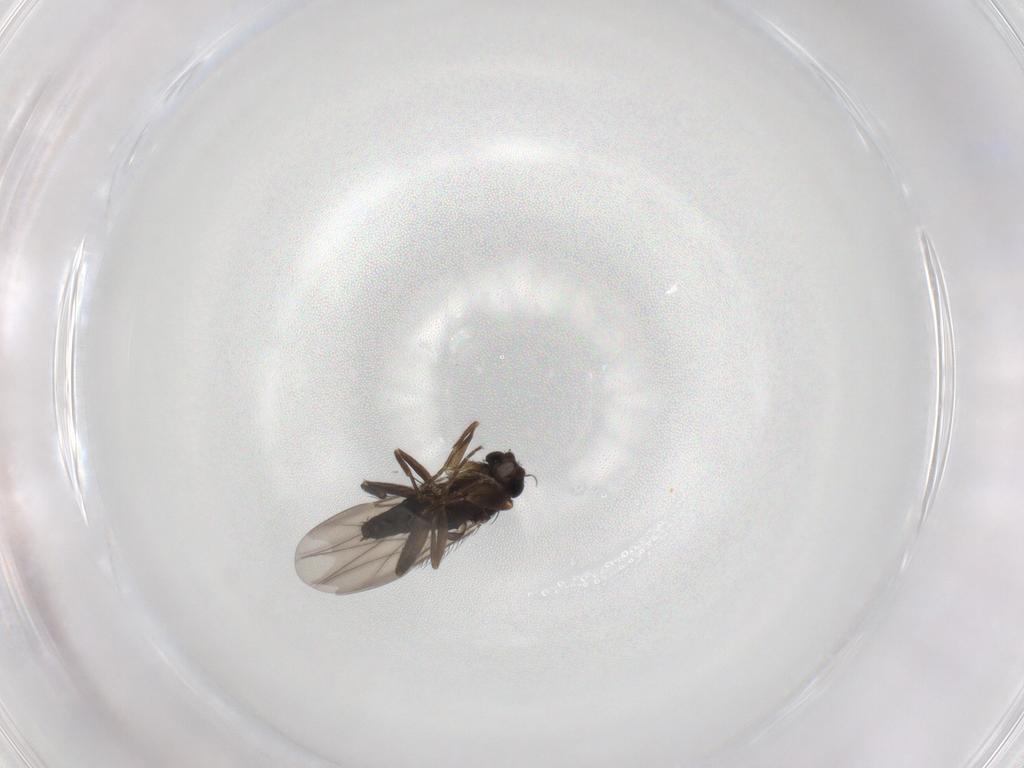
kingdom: Animalia
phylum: Arthropoda
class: Insecta
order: Diptera
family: Phoridae
